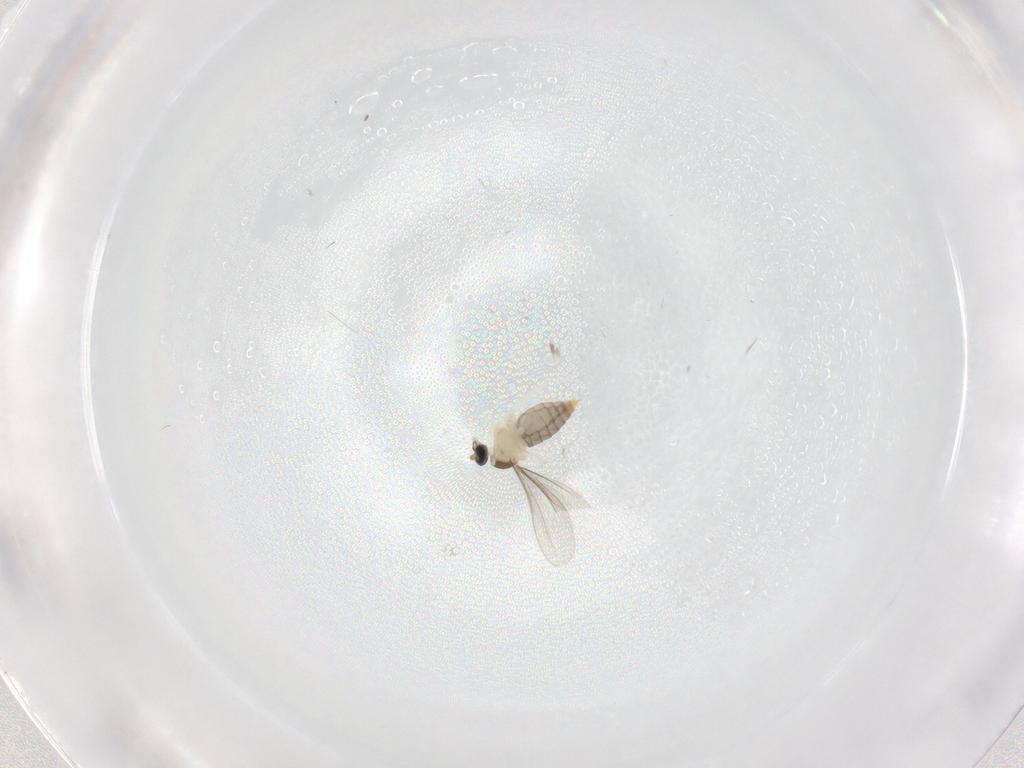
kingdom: Animalia
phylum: Arthropoda
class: Insecta
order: Diptera
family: Ceratopogonidae
